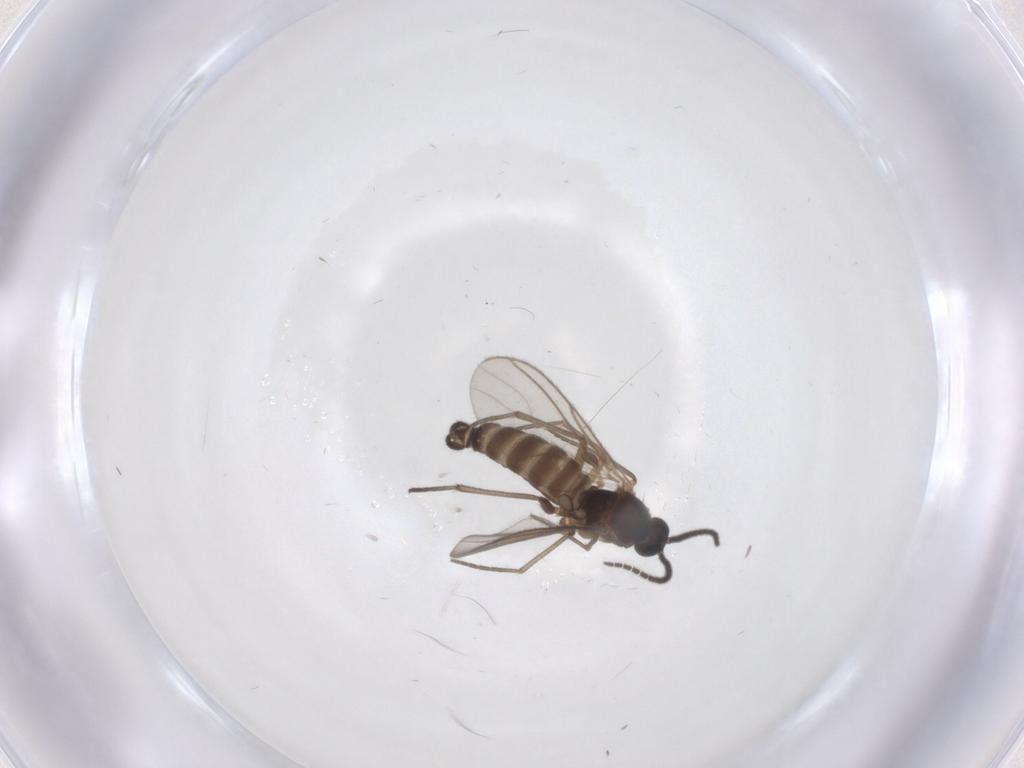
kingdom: Animalia
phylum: Arthropoda
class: Insecta
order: Diptera
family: Sciaridae
